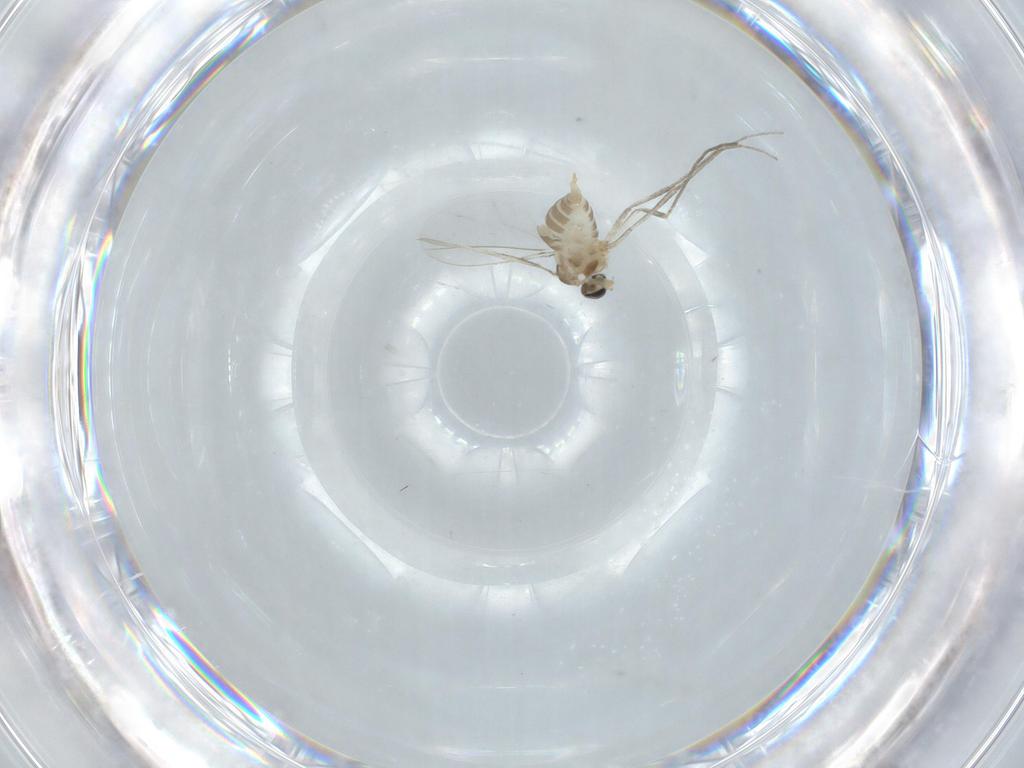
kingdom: Animalia
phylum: Arthropoda
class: Insecta
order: Diptera
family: Cecidomyiidae
